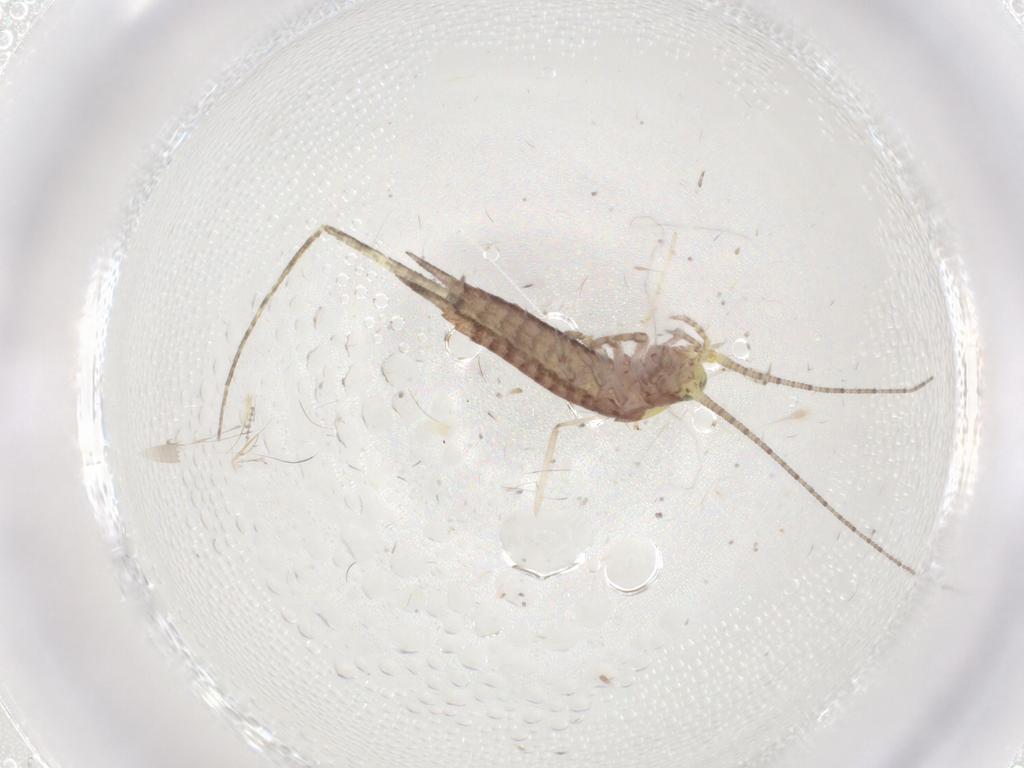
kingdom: Animalia
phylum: Arthropoda
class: Insecta
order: Archaeognatha
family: Machilidae
